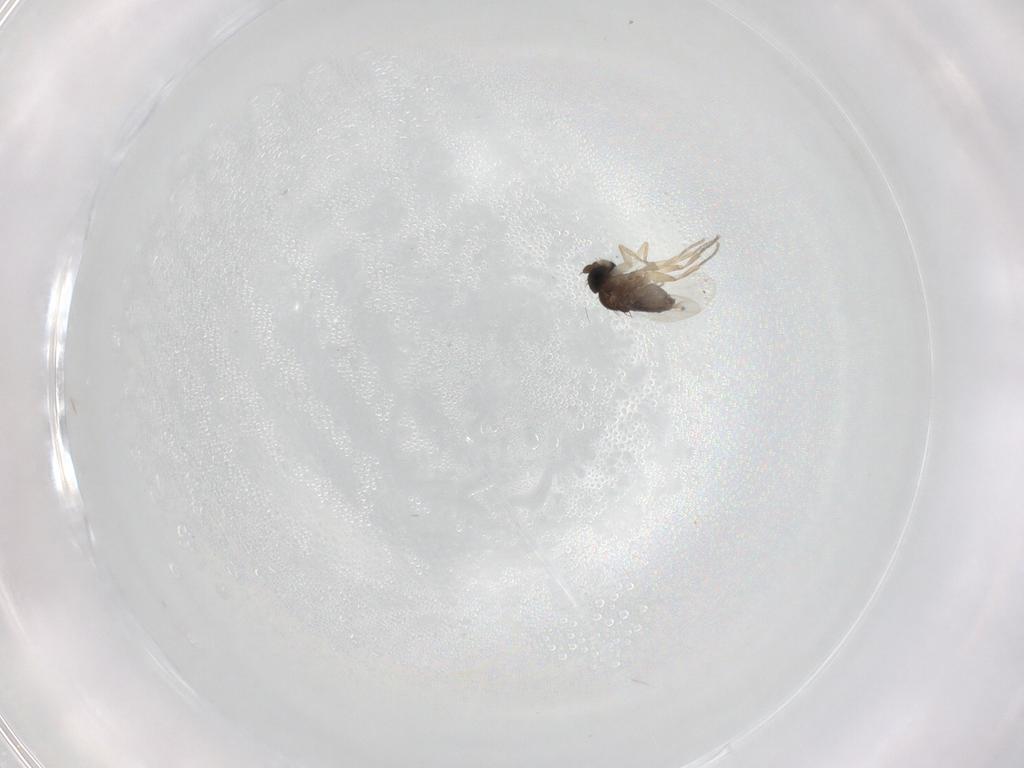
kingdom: Animalia
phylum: Arthropoda
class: Insecta
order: Diptera
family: Phoridae
